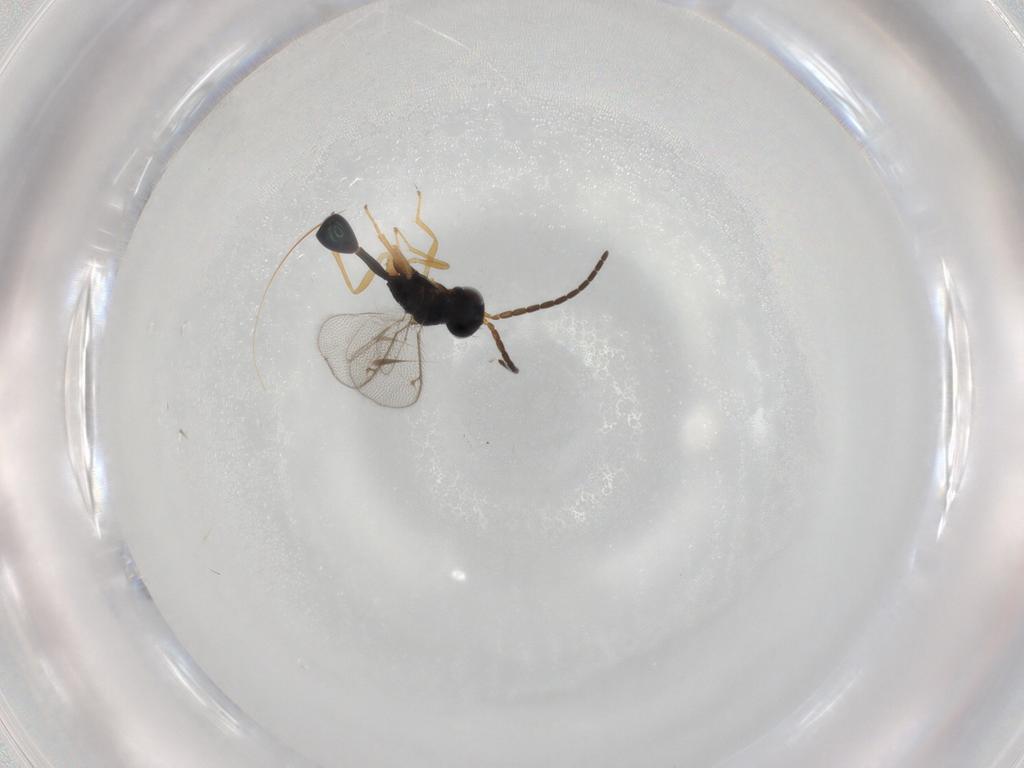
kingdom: Animalia
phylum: Arthropoda
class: Insecta
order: Hymenoptera
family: Diparidae
